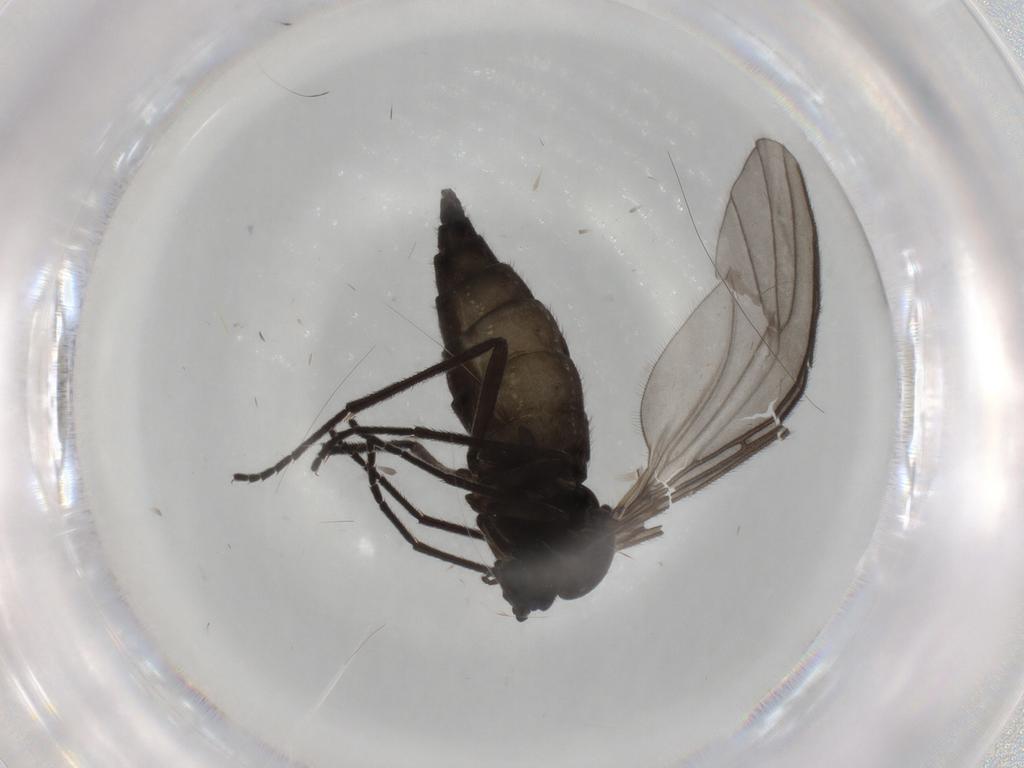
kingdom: Animalia
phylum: Arthropoda
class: Insecta
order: Diptera
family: Sciaridae
